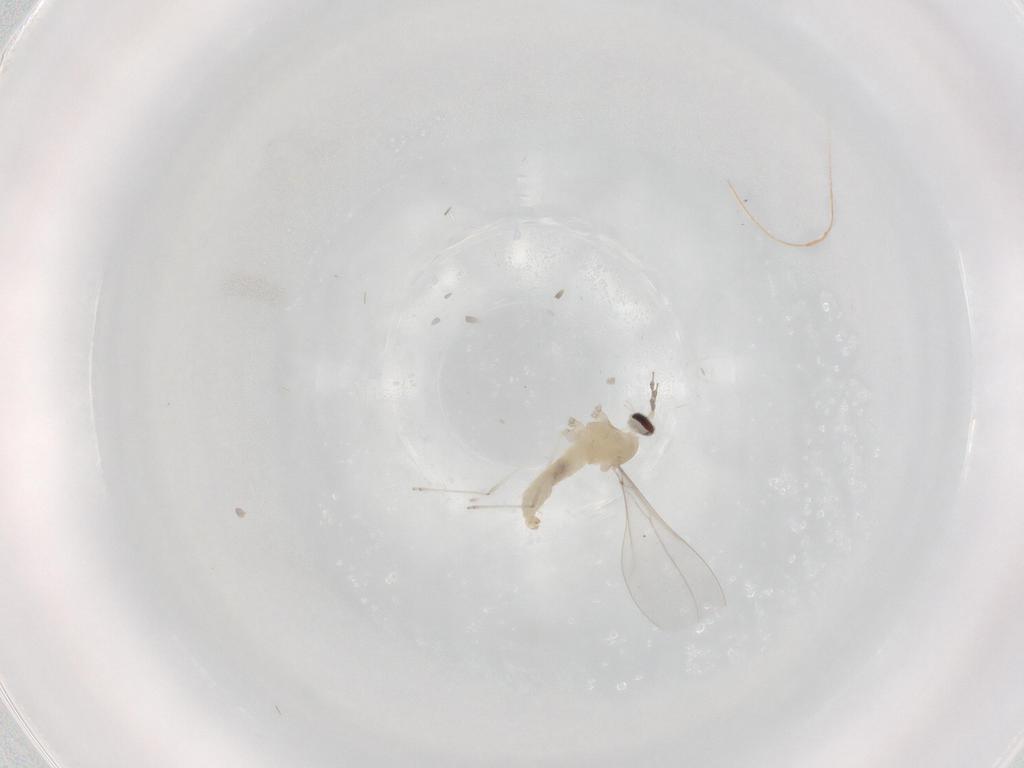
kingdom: Animalia
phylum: Arthropoda
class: Insecta
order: Diptera
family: Cecidomyiidae
